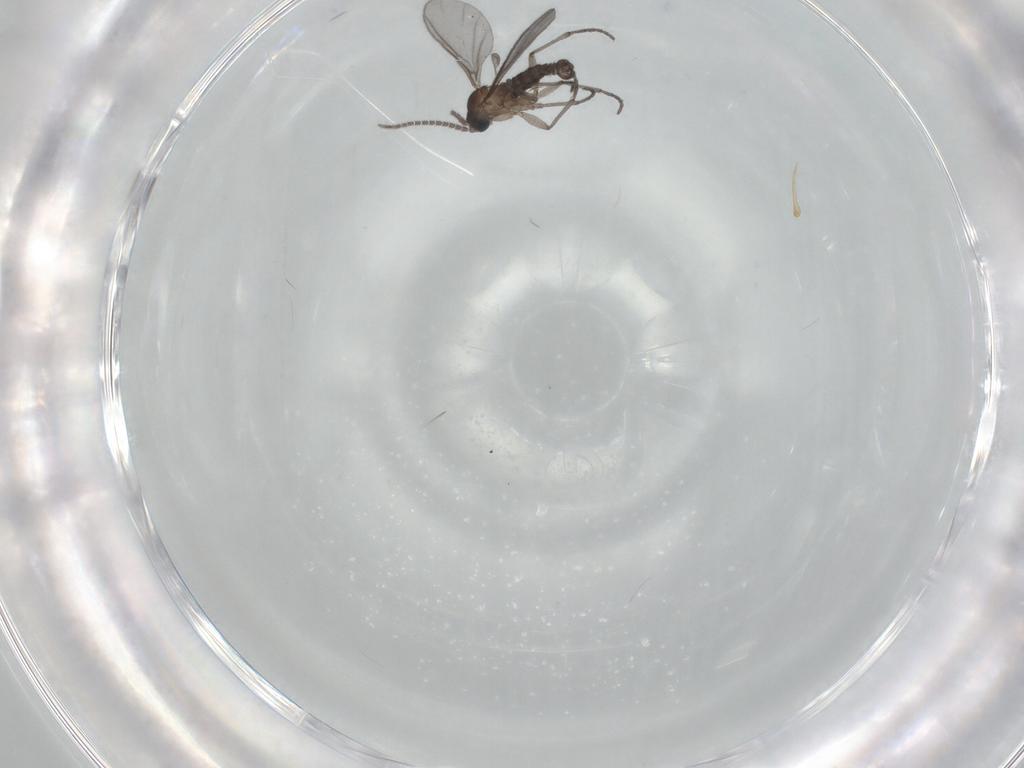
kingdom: Animalia
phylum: Arthropoda
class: Insecta
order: Diptera
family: Sciaridae
